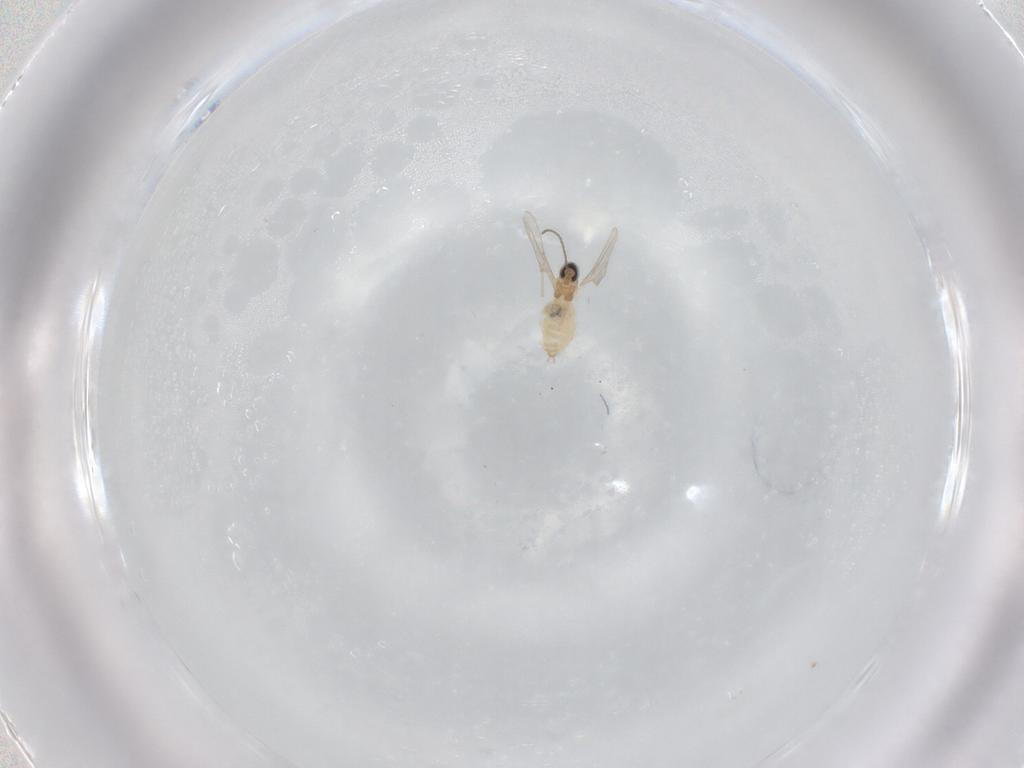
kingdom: Animalia
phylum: Arthropoda
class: Insecta
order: Diptera
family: Cecidomyiidae
